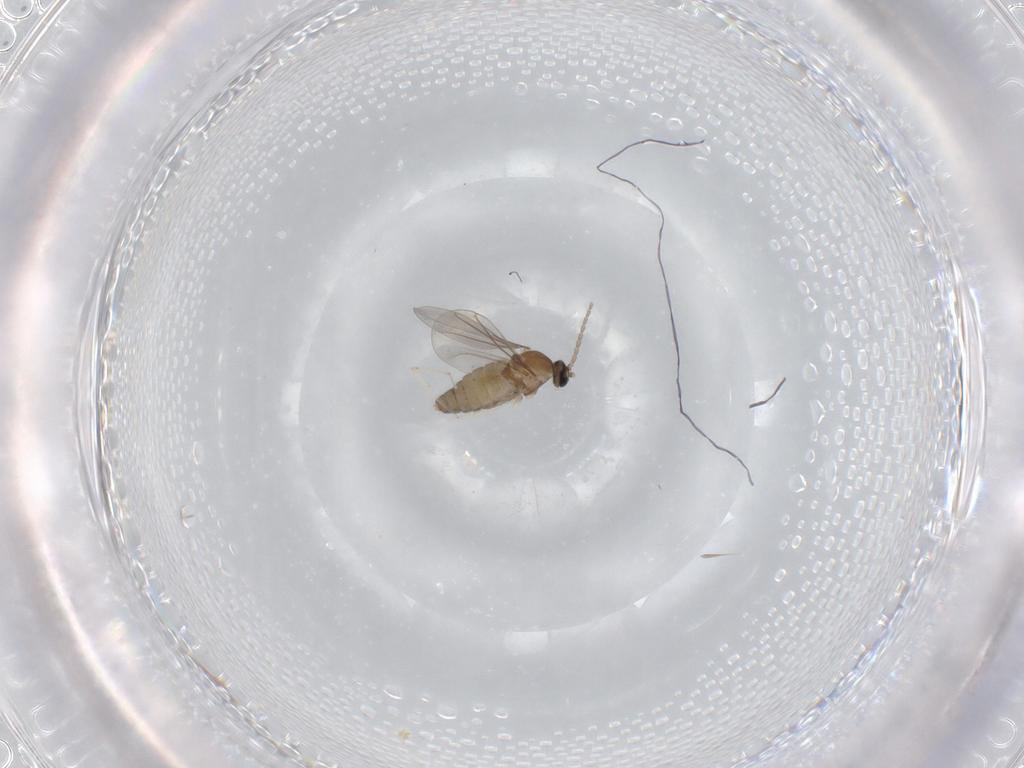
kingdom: Animalia
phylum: Arthropoda
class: Insecta
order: Diptera
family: Cecidomyiidae
